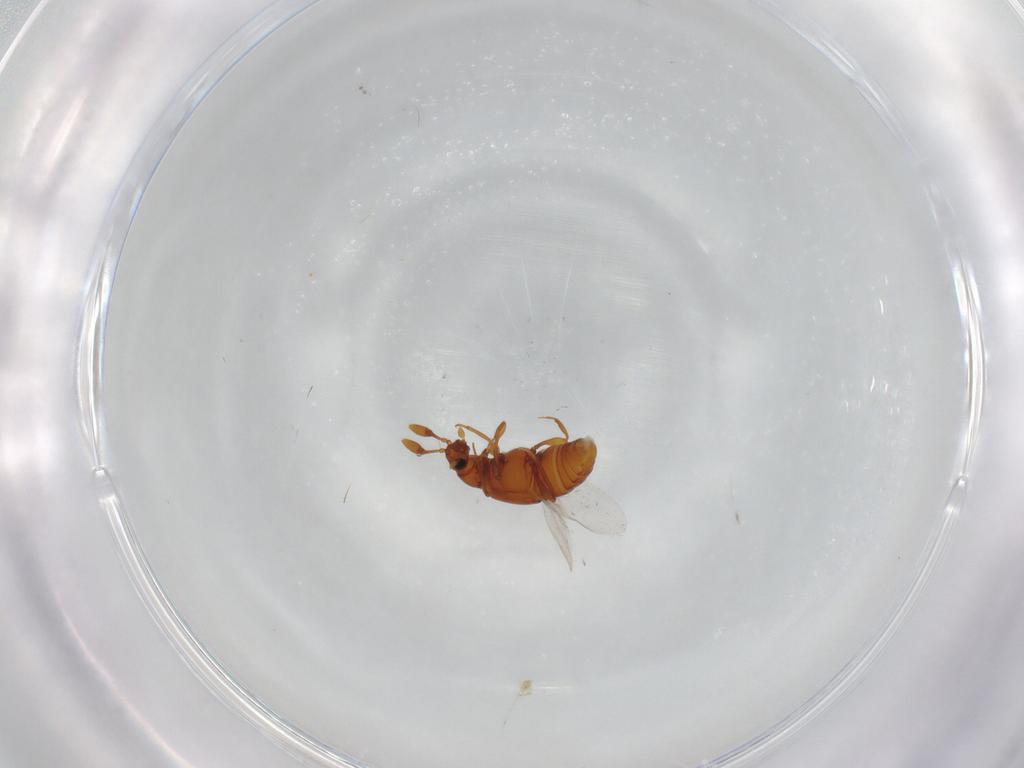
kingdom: Animalia
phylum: Arthropoda
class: Insecta
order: Coleoptera
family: Staphylinidae
